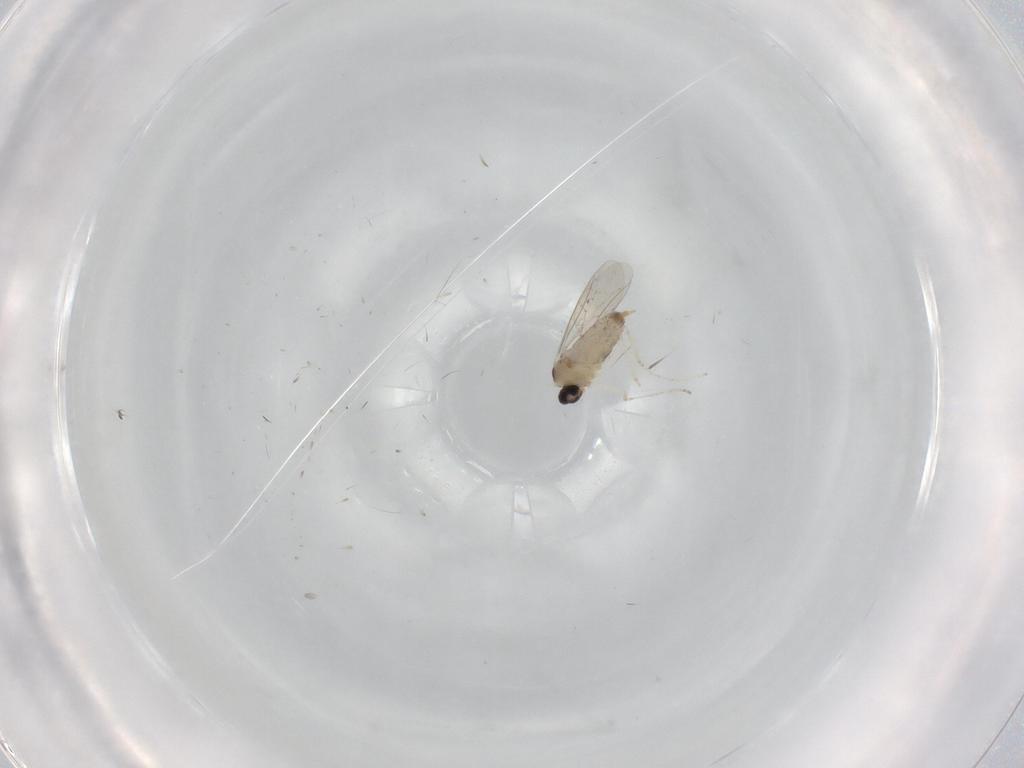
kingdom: Animalia
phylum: Arthropoda
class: Insecta
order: Diptera
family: Cecidomyiidae
